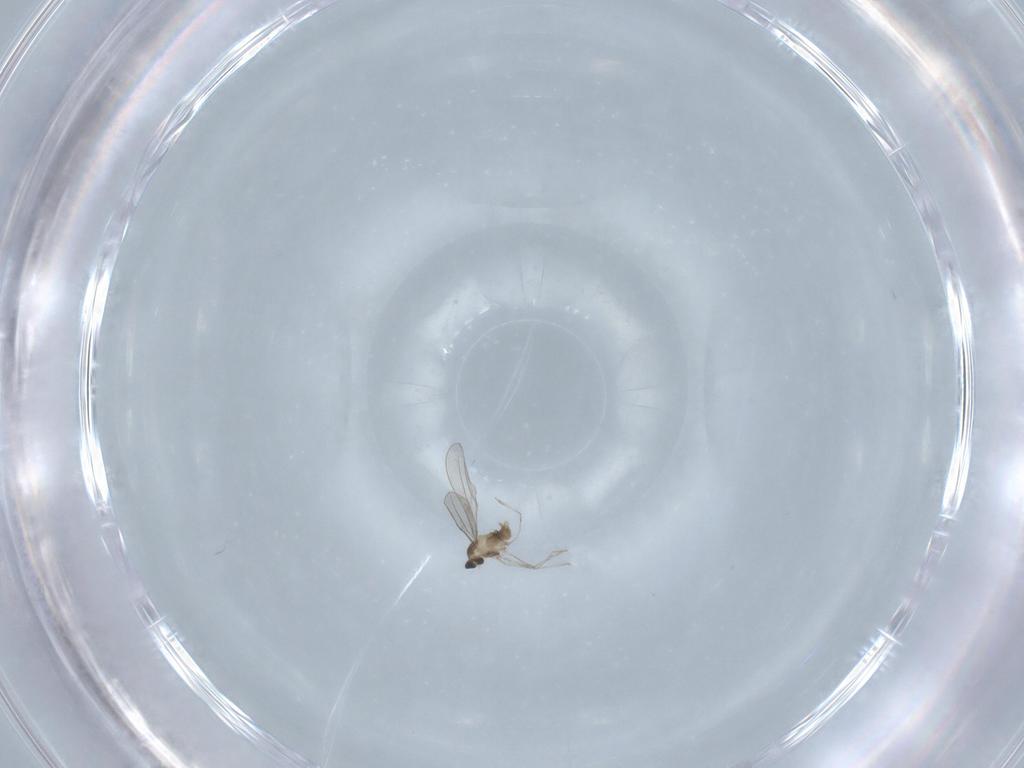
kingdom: Animalia
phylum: Arthropoda
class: Insecta
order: Diptera
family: Cecidomyiidae
